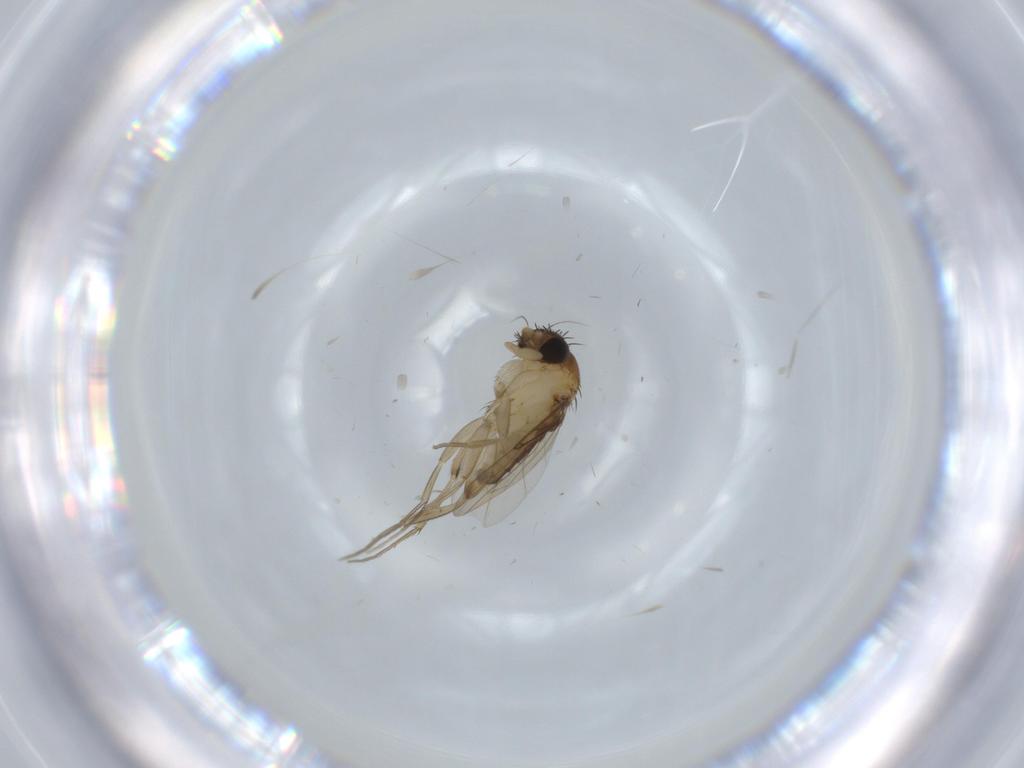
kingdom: Animalia
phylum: Arthropoda
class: Insecta
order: Diptera
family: Phoridae
